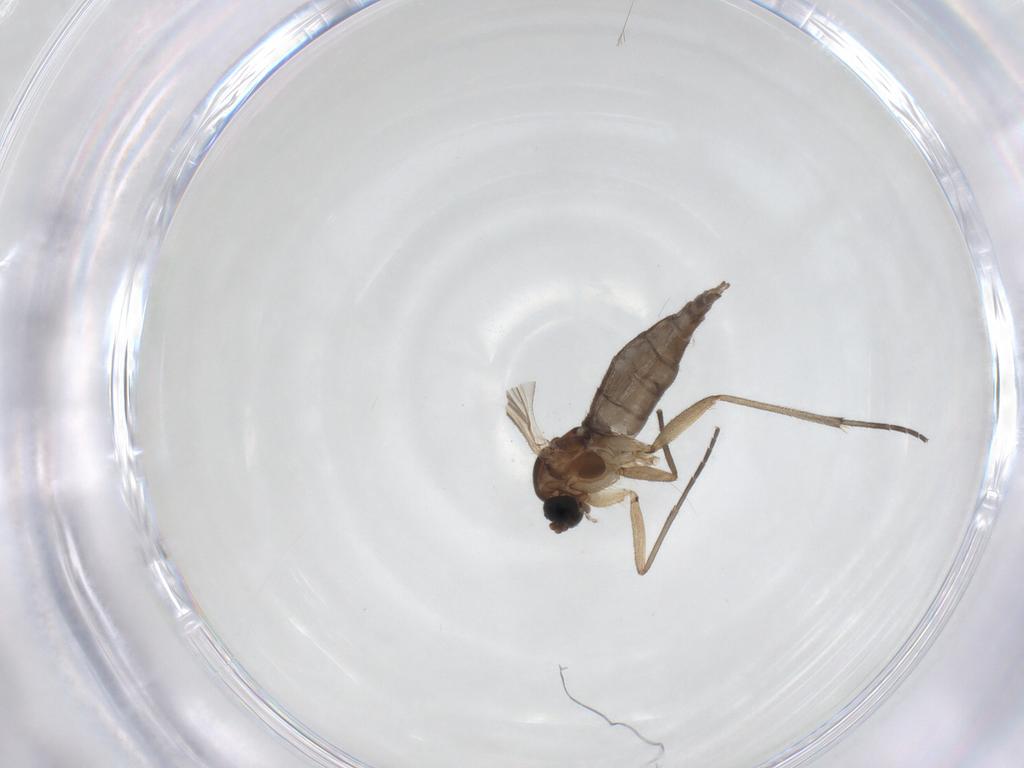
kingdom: Animalia
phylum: Arthropoda
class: Insecta
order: Diptera
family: Sciaridae
